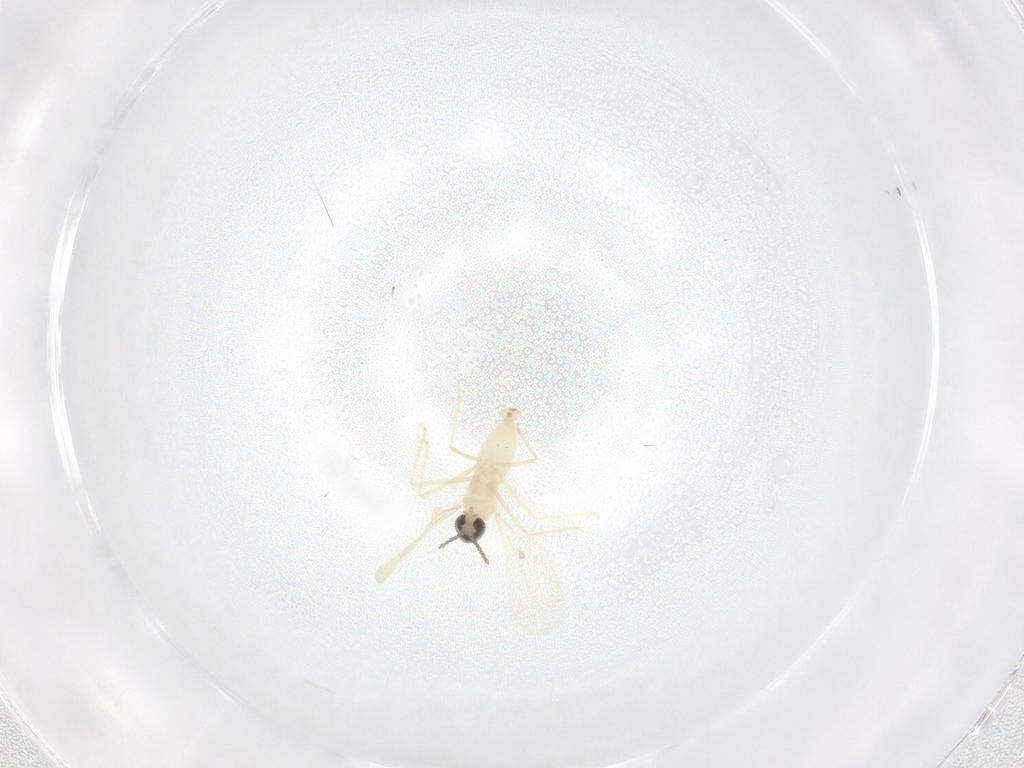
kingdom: Animalia
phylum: Arthropoda
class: Insecta
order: Diptera
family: Cecidomyiidae
